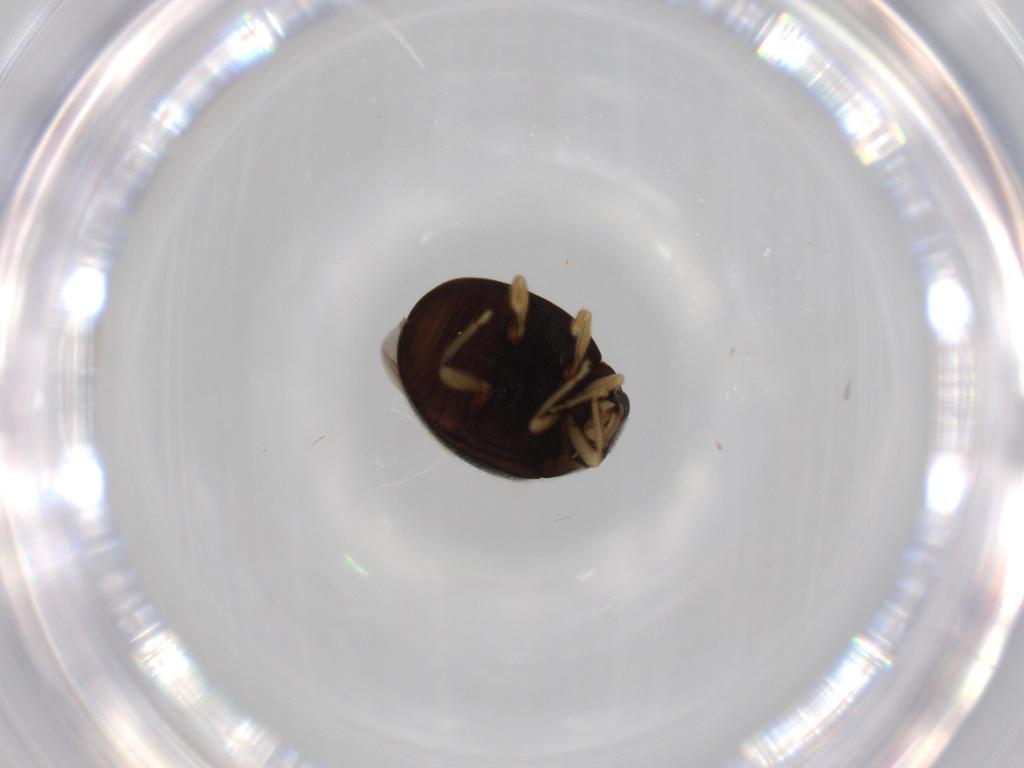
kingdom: Animalia
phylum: Arthropoda
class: Insecta
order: Coleoptera
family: Coccinellidae
